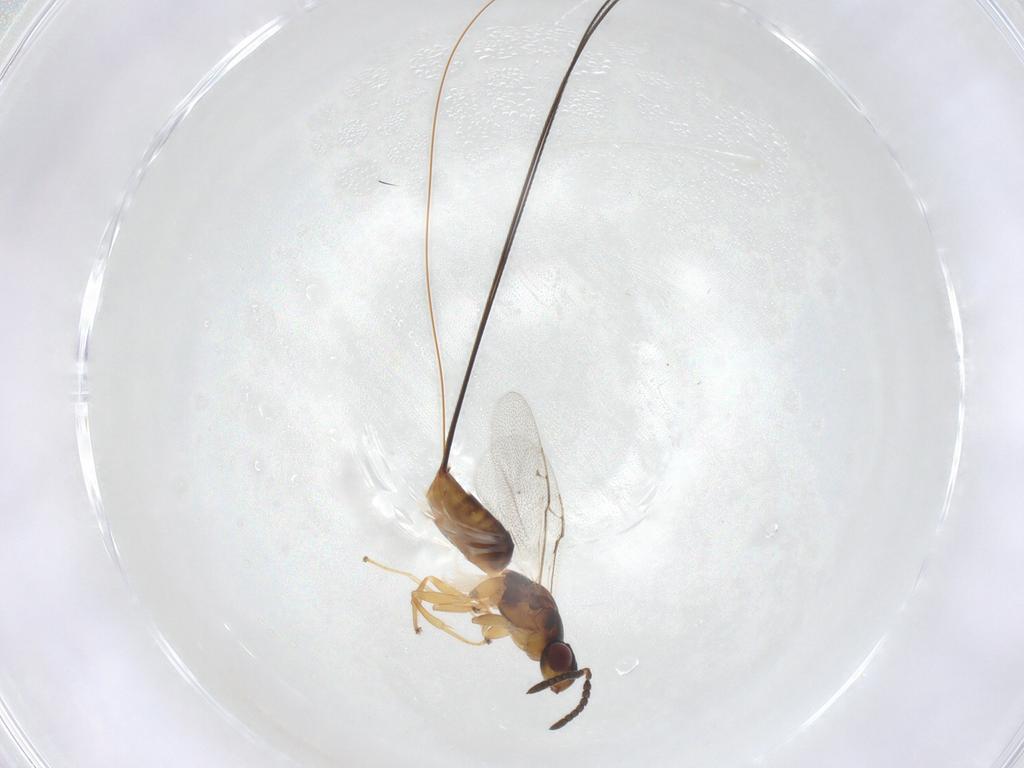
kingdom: Animalia
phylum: Arthropoda
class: Insecta
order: Hymenoptera
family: Pteromalidae
